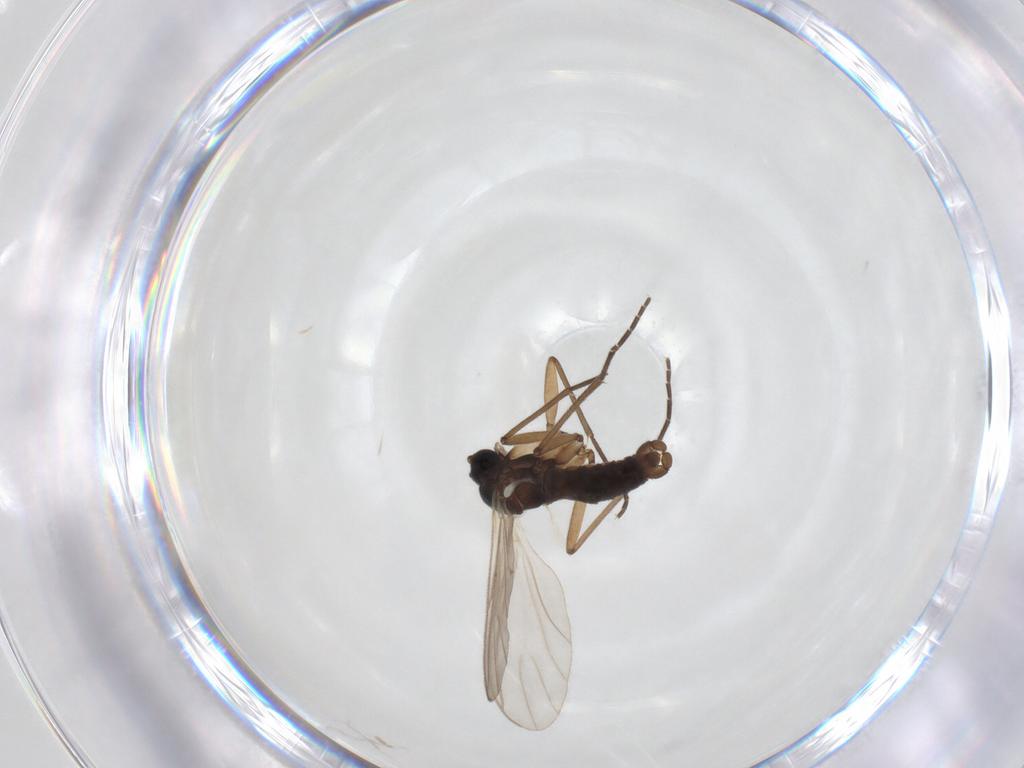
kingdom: Animalia
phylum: Arthropoda
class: Insecta
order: Diptera
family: Sciaridae
